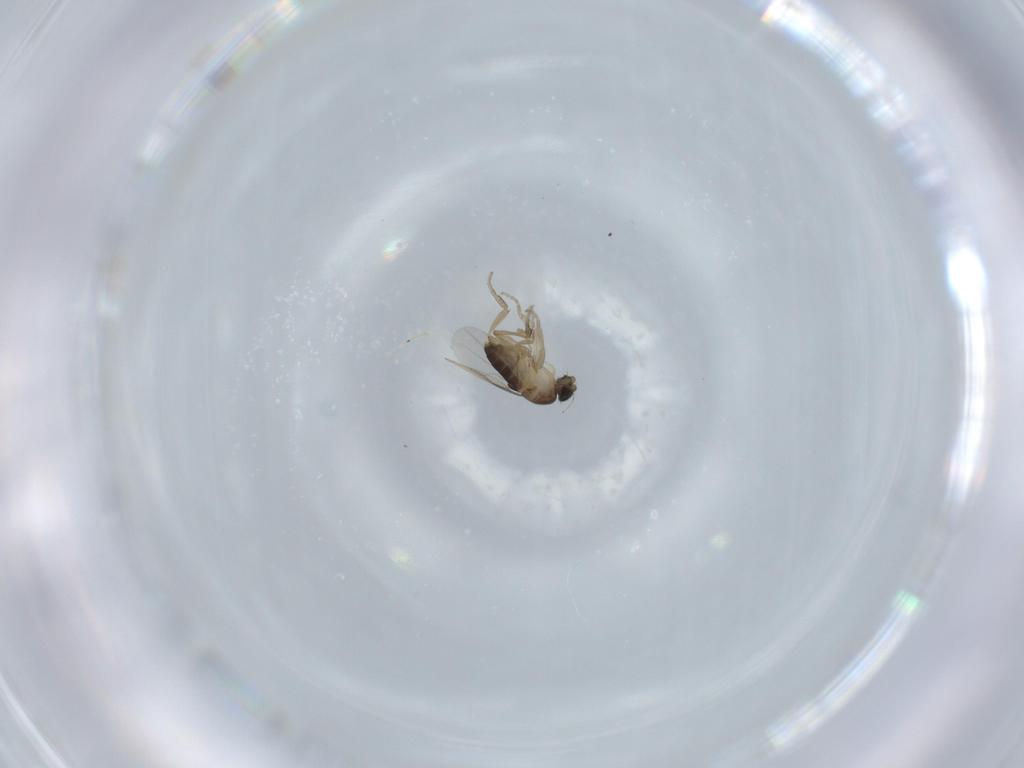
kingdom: Animalia
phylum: Arthropoda
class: Insecta
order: Diptera
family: Phoridae
